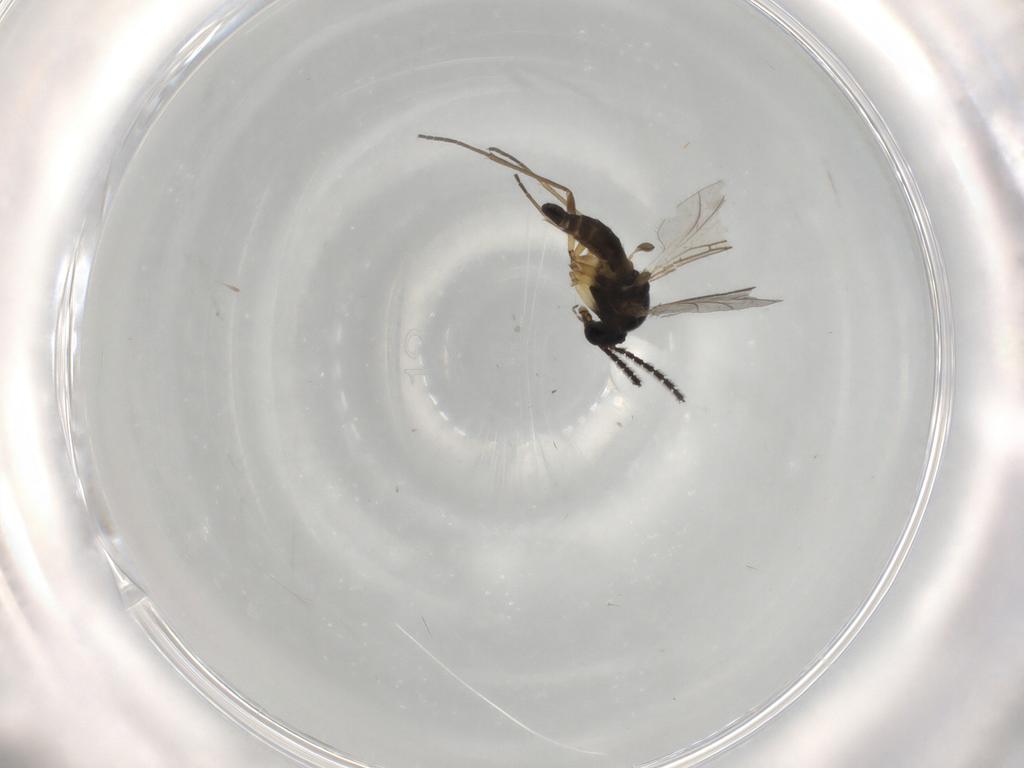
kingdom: Animalia
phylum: Arthropoda
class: Insecta
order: Diptera
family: Sciaridae
